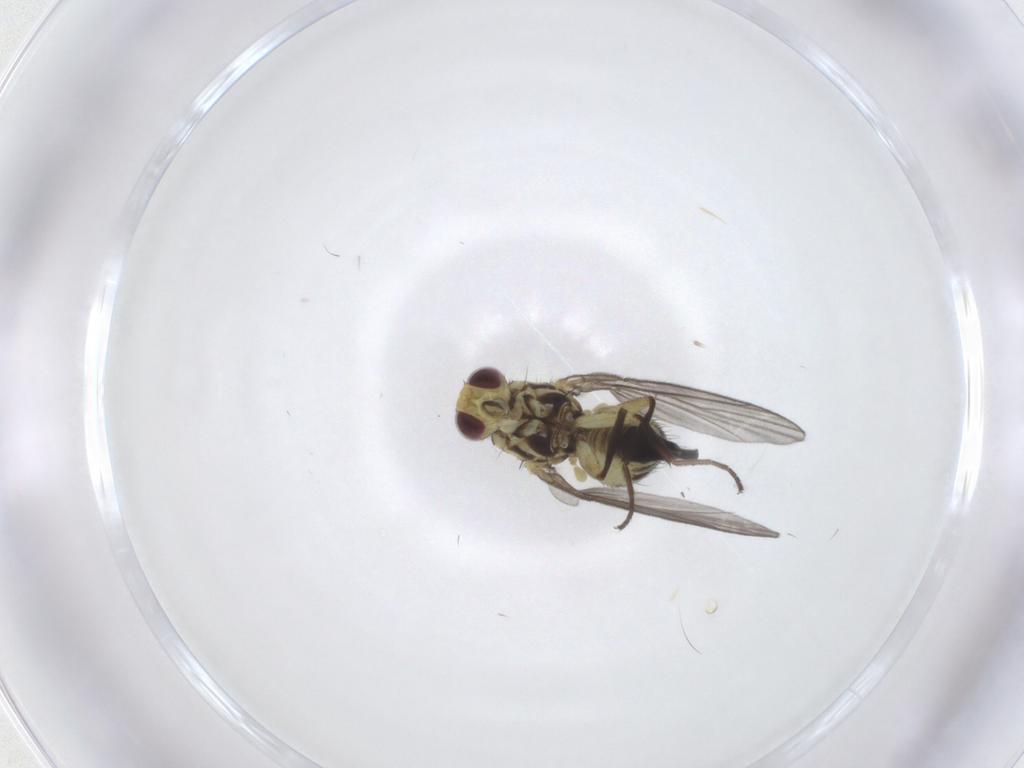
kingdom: Animalia
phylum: Arthropoda
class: Insecta
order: Diptera
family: Agromyzidae
